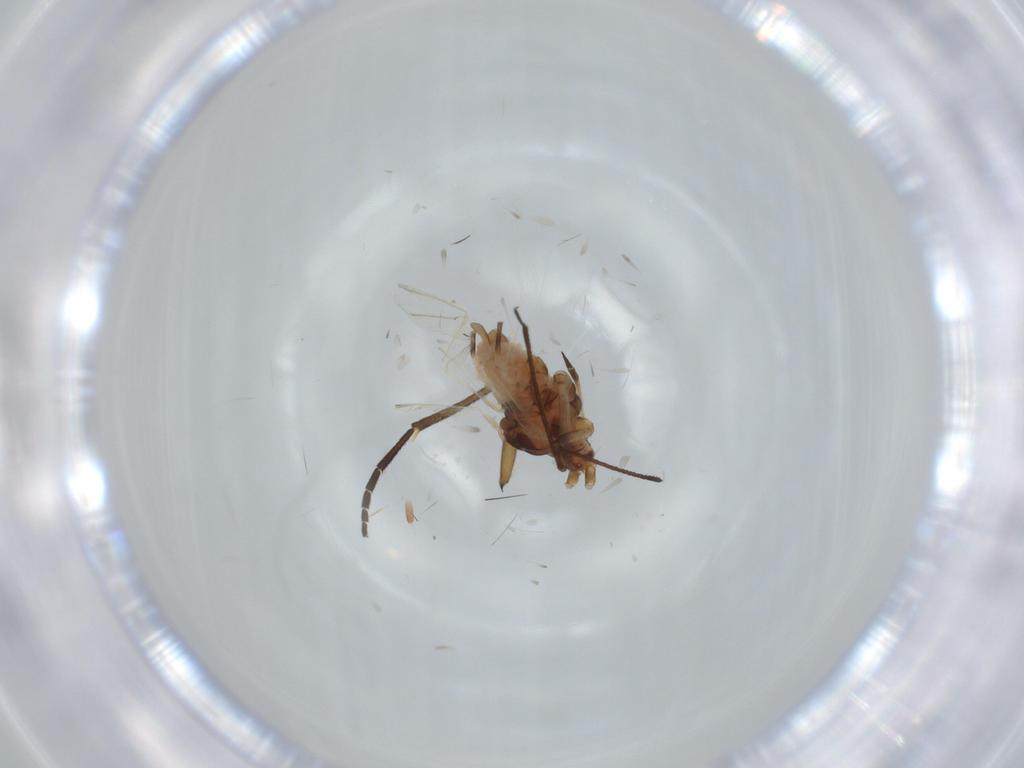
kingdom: Animalia
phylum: Arthropoda
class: Insecta
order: Hemiptera
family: Aphididae
